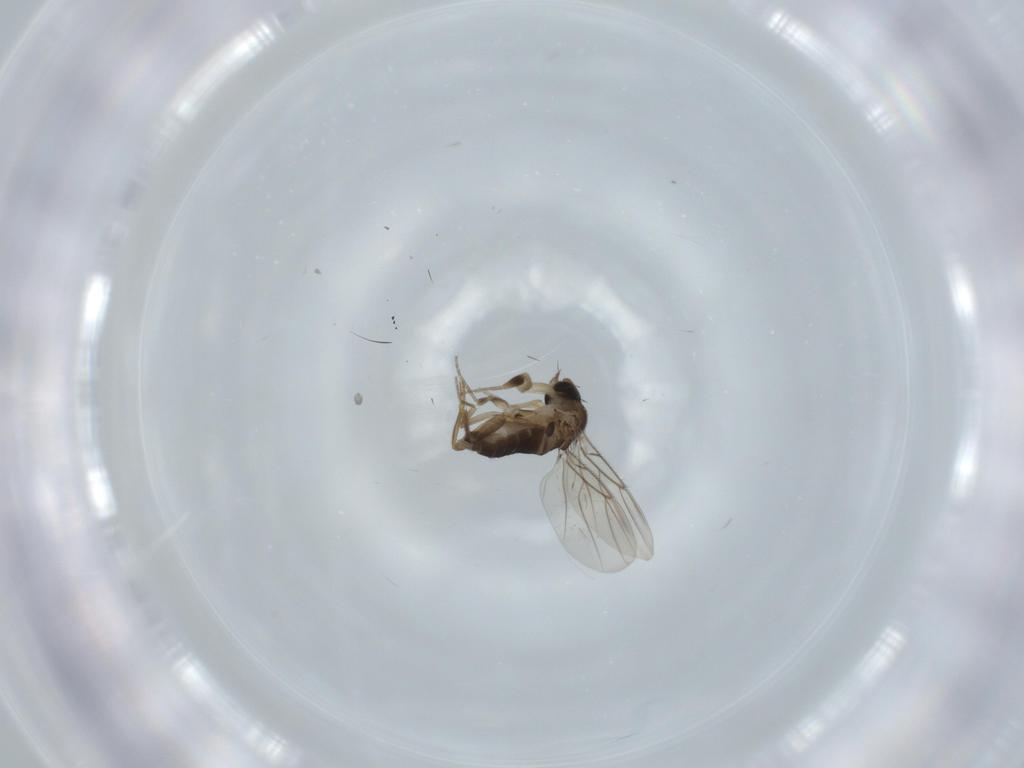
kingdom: Animalia
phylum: Arthropoda
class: Insecta
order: Diptera
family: Phoridae
